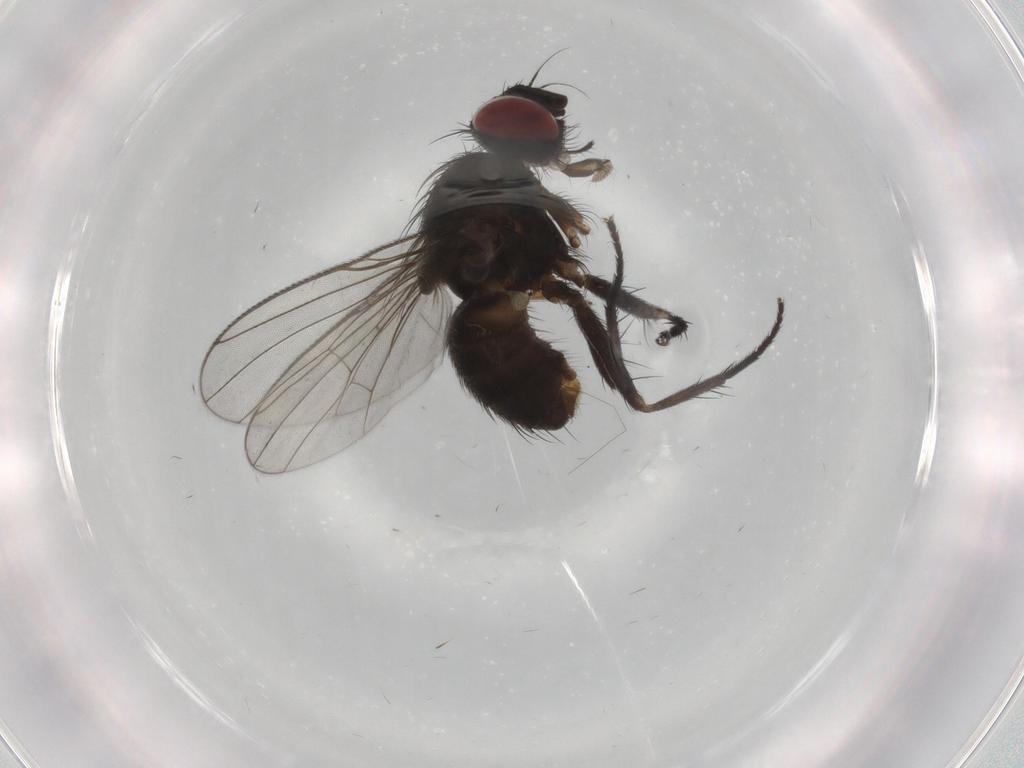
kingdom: Animalia
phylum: Arthropoda
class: Insecta
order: Diptera
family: Muscidae
